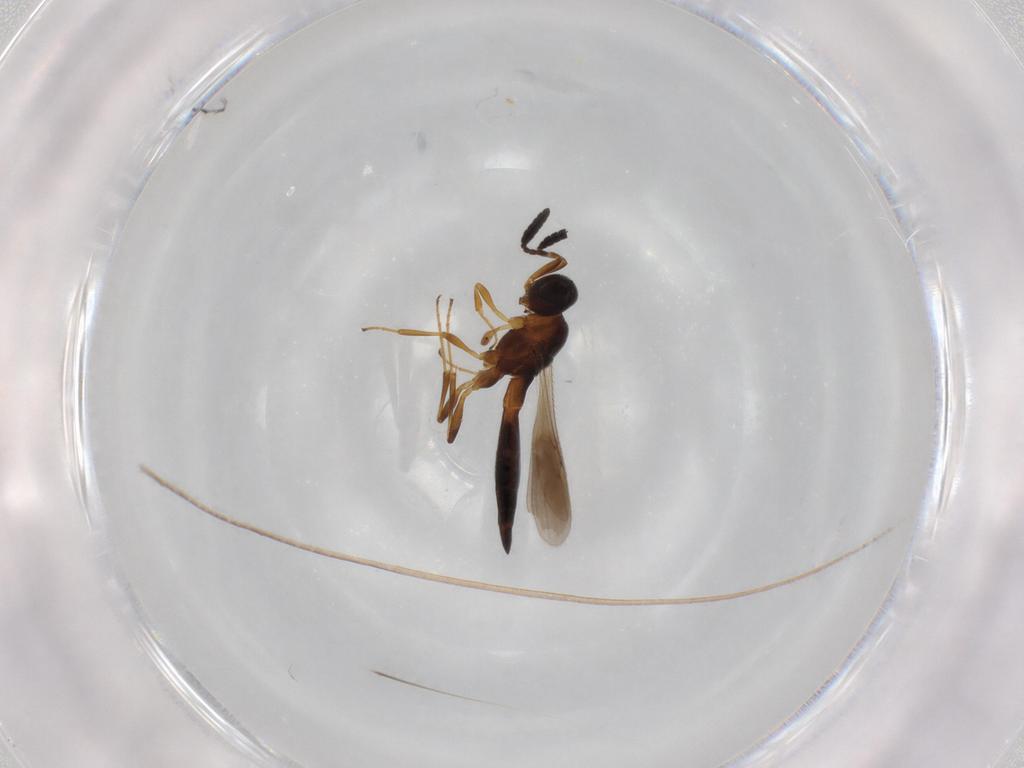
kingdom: Animalia
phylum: Arthropoda
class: Insecta
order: Hymenoptera
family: Scelionidae
